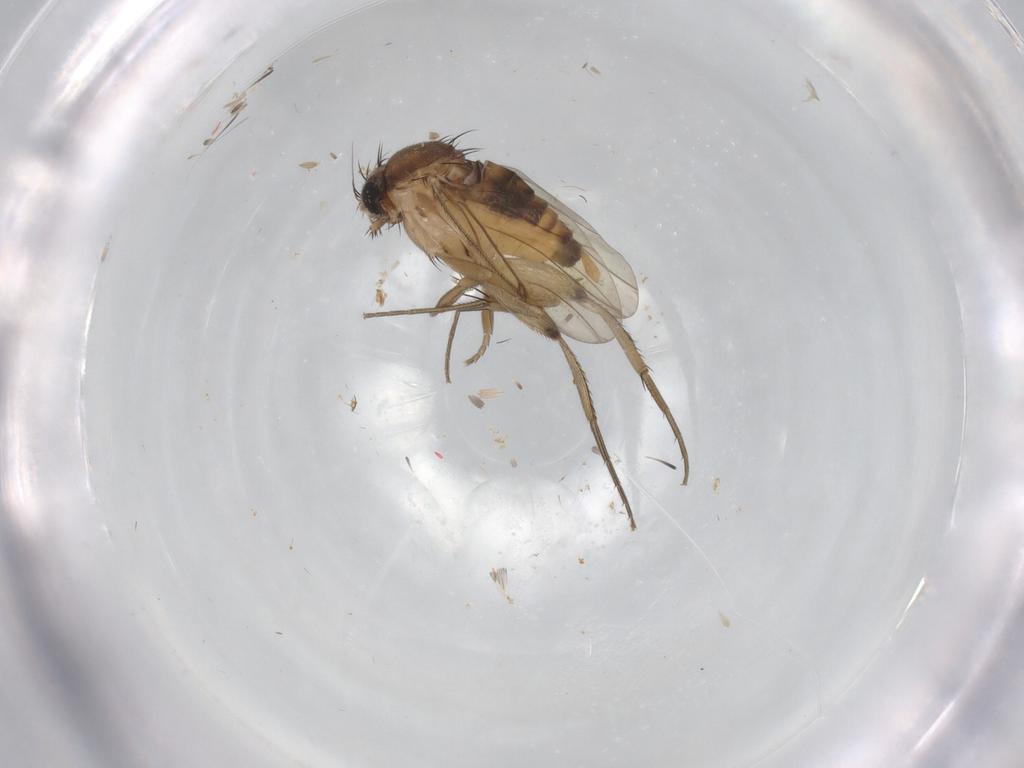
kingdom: Animalia
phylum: Arthropoda
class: Insecta
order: Diptera
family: Phoridae
